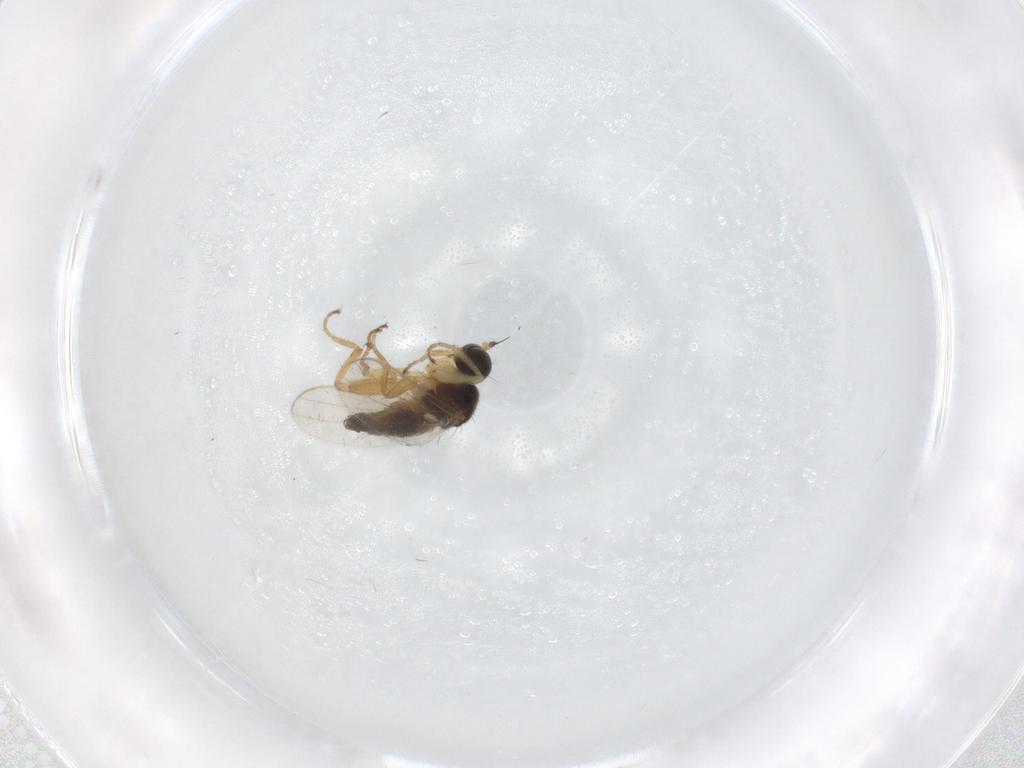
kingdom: Animalia
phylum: Arthropoda
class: Insecta
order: Diptera
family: Hybotidae
